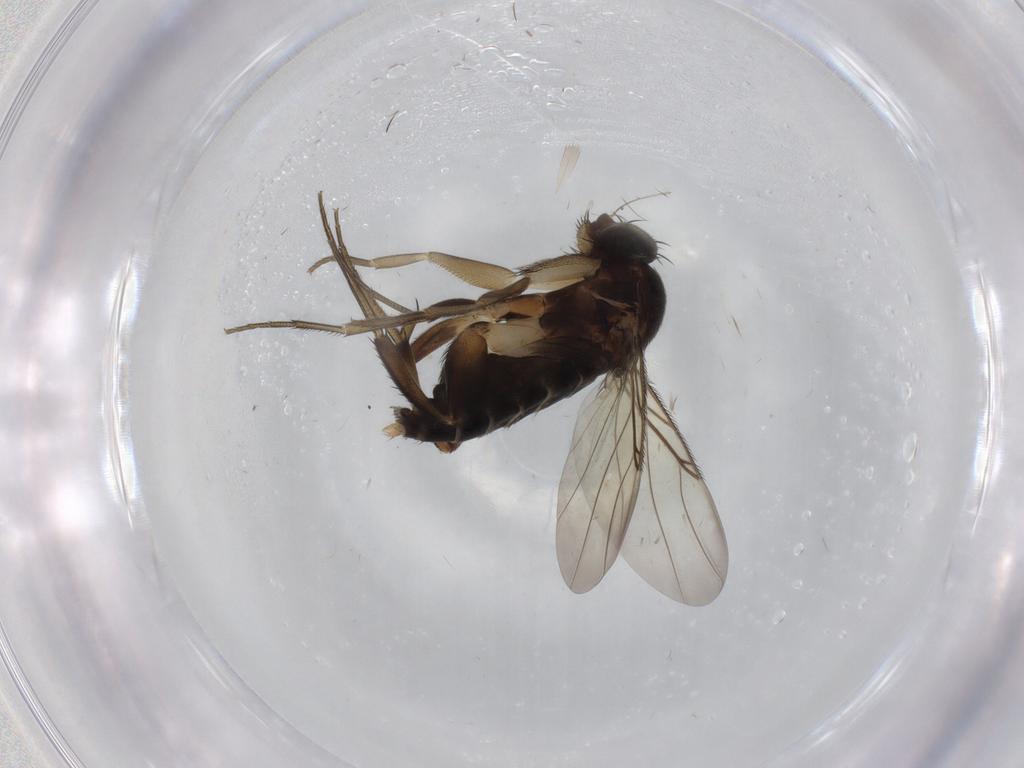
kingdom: Animalia
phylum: Arthropoda
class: Insecta
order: Diptera
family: Phoridae
